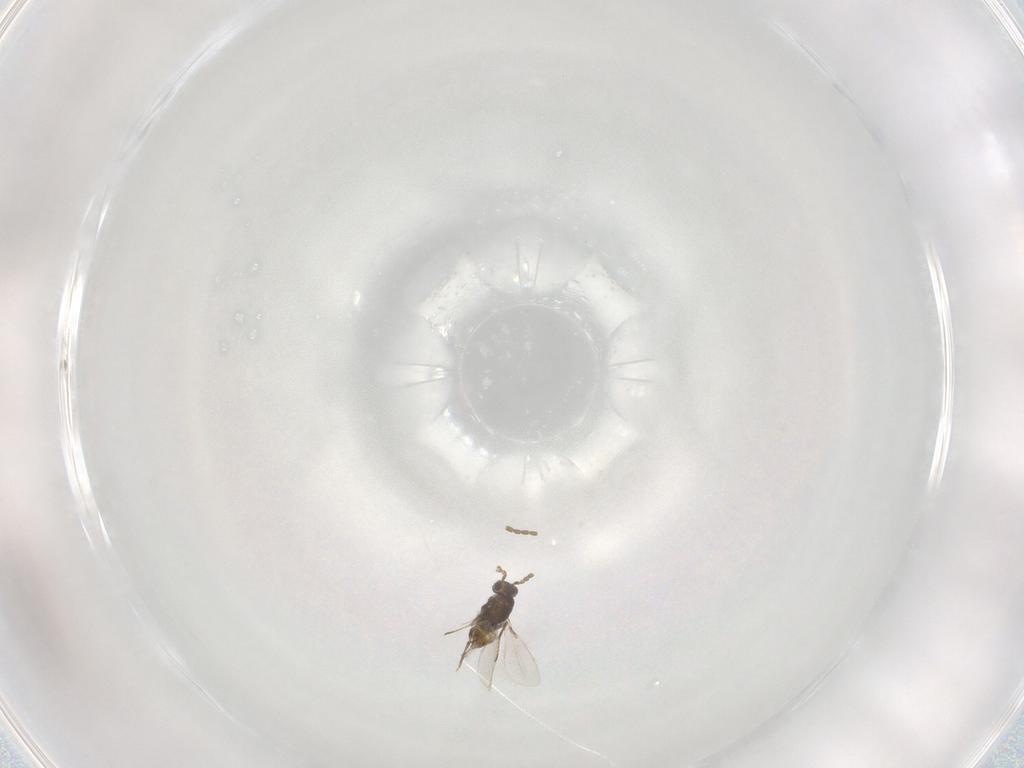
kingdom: Animalia
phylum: Arthropoda
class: Insecta
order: Hymenoptera
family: Mymaridae
